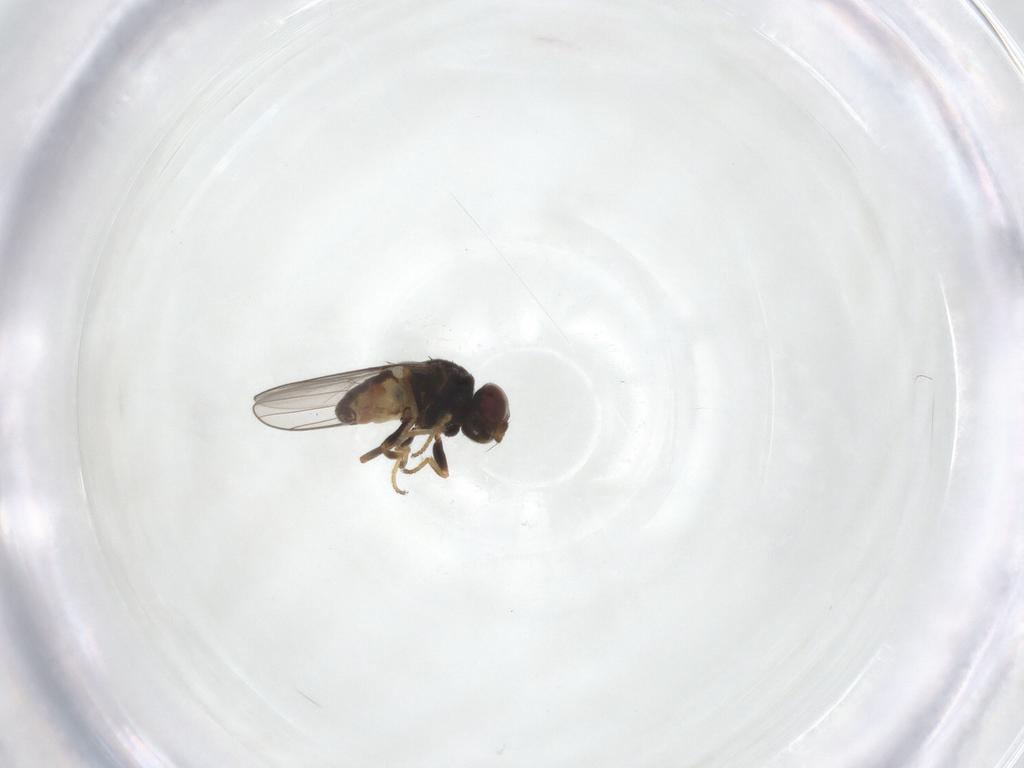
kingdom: Animalia
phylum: Arthropoda
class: Insecta
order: Diptera
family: Chloropidae
